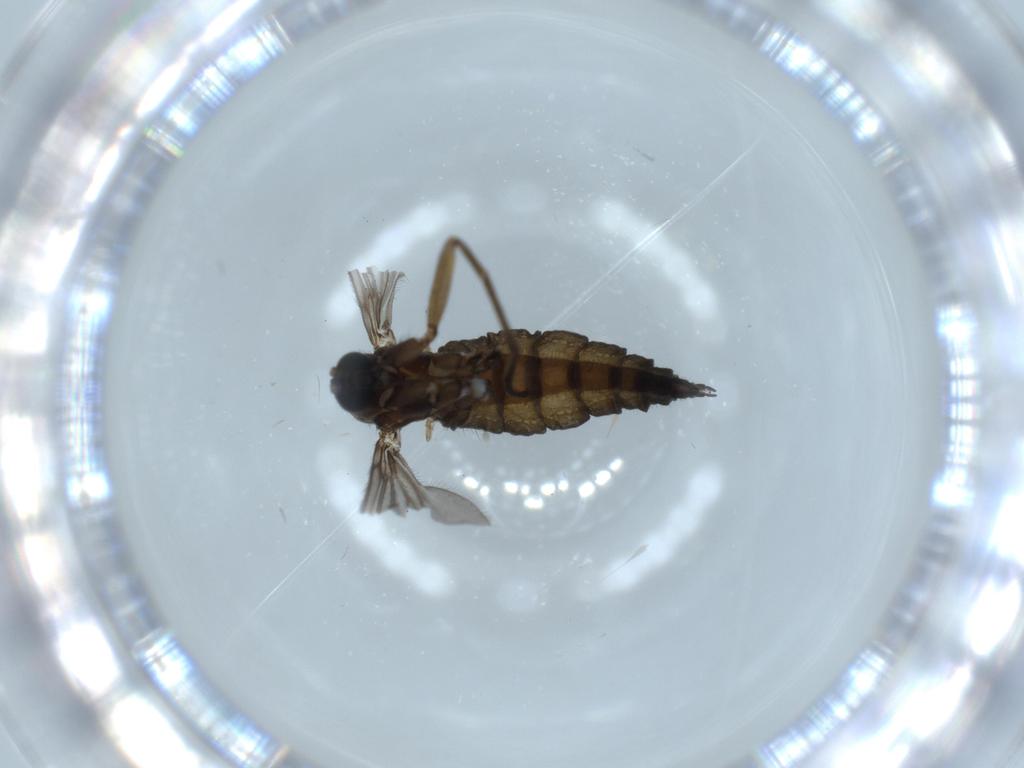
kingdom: Animalia
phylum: Arthropoda
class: Insecta
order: Diptera
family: Sciaridae
